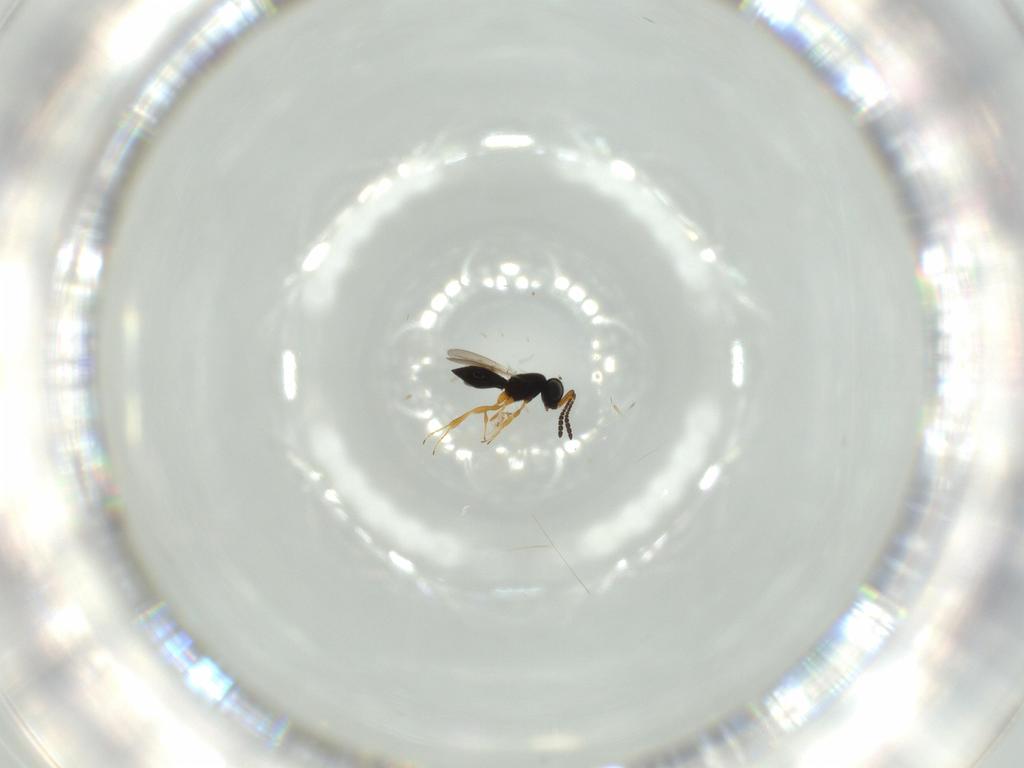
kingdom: Animalia
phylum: Arthropoda
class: Insecta
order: Hymenoptera
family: Scelionidae
